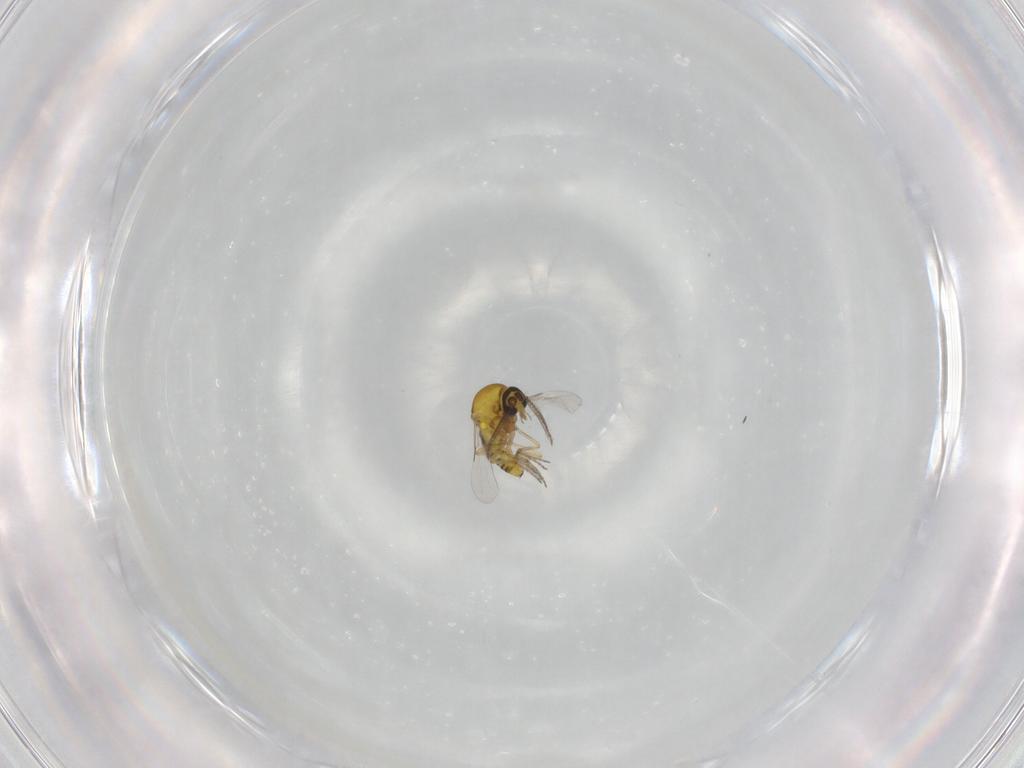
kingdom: Animalia
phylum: Arthropoda
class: Insecta
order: Diptera
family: Ceratopogonidae
